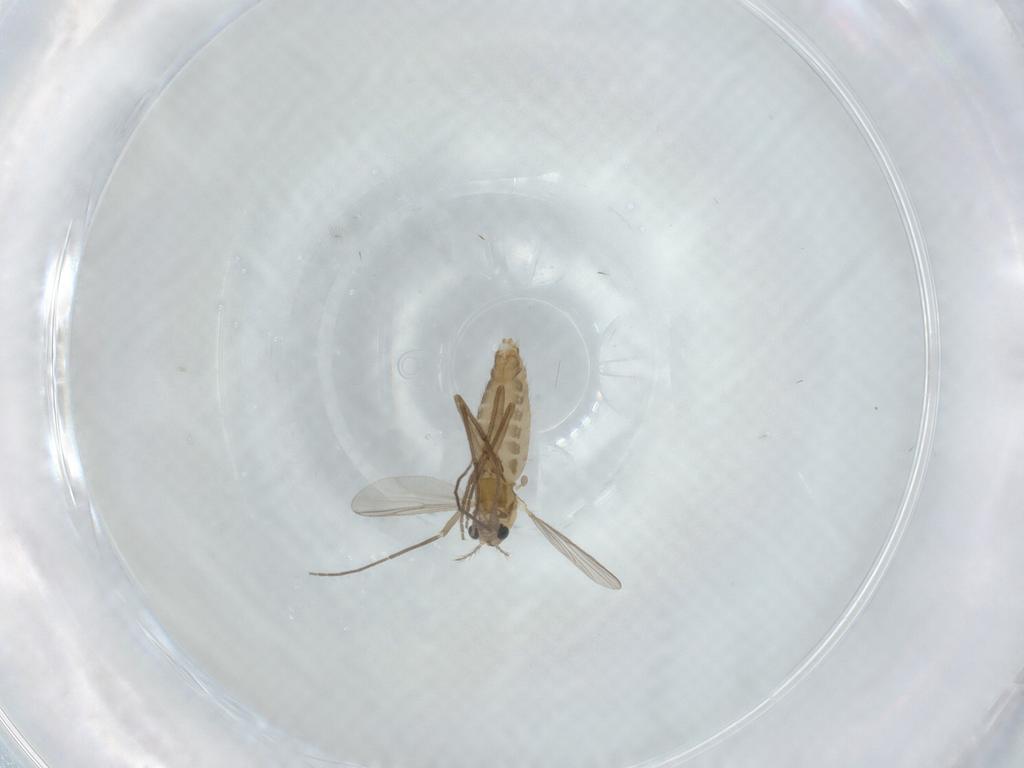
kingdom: Animalia
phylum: Arthropoda
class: Insecta
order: Diptera
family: Chironomidae
